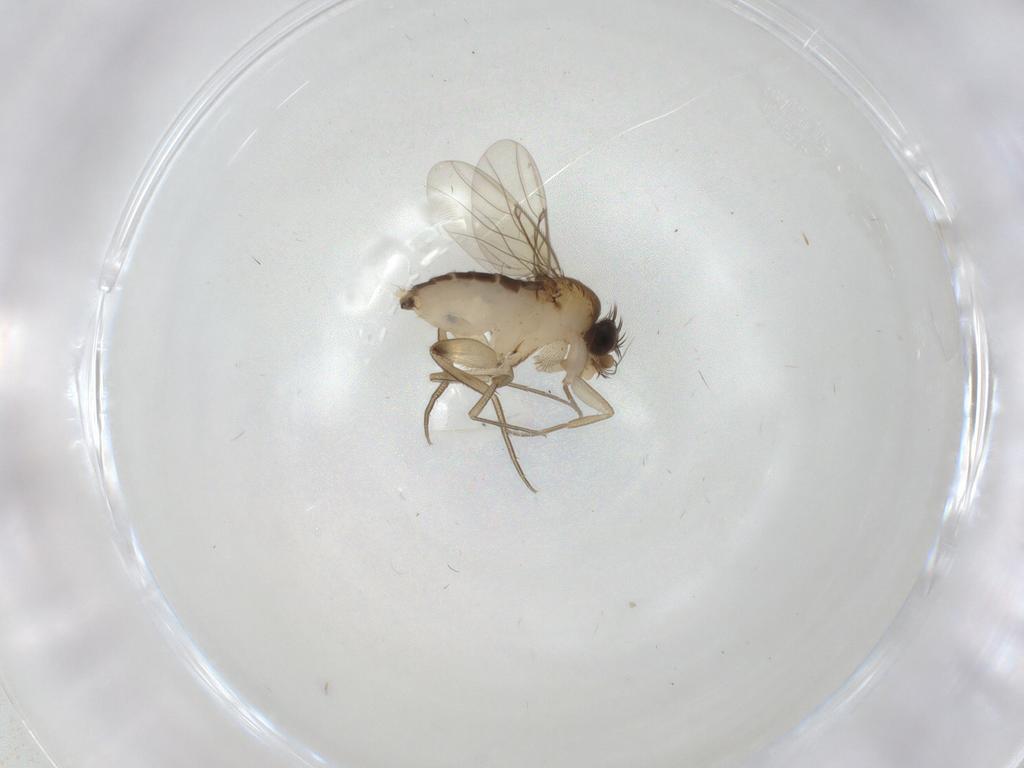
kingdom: Animalia
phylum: Arthropoda
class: Insecta
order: Diptera
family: Phoridae
